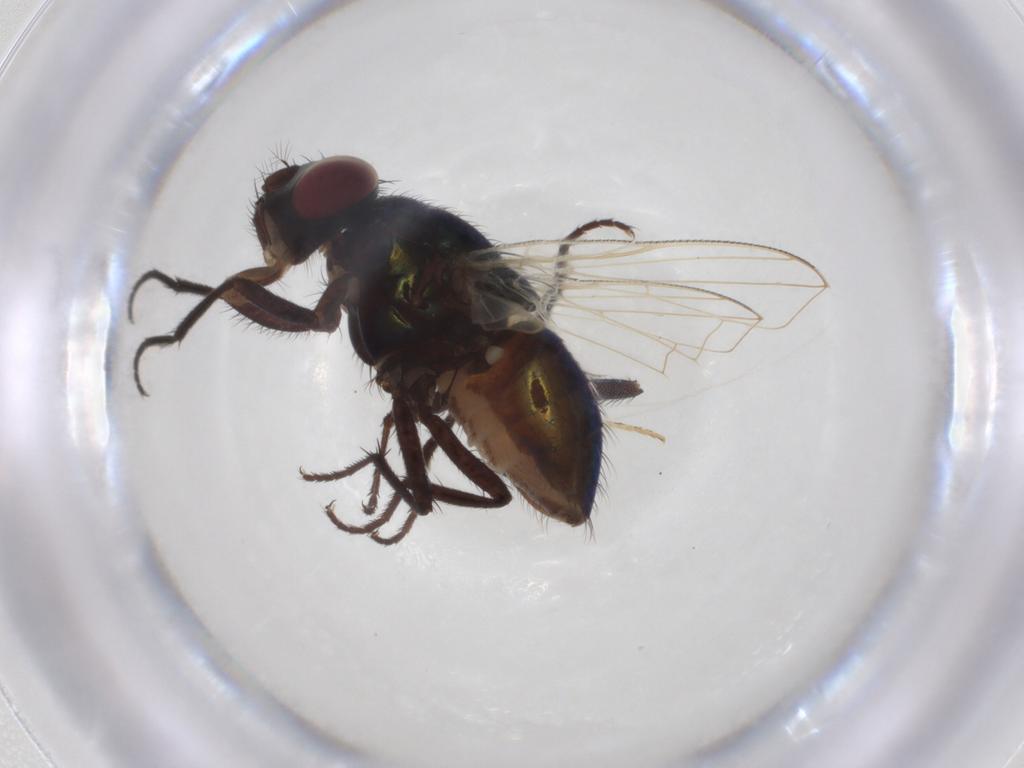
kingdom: Animalia
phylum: Arthropoda
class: Insecta
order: Diptera
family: Muscidae
